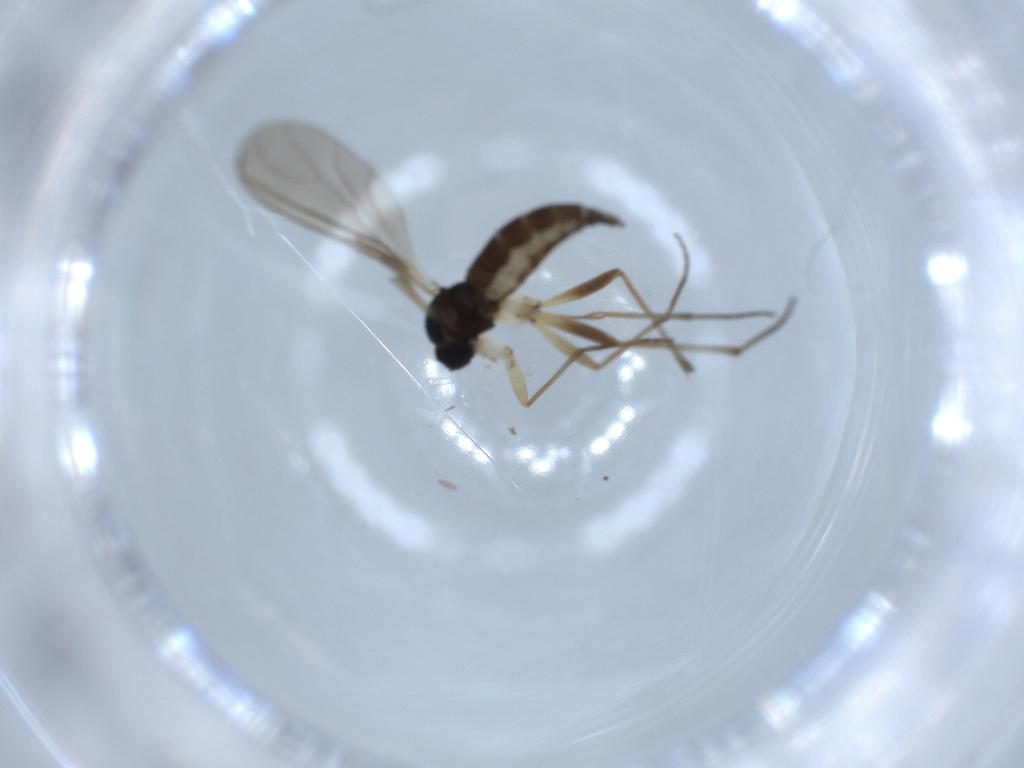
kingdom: Animalia
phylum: Arthropoda
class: Insecta
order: Diptera
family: Sciaridae
